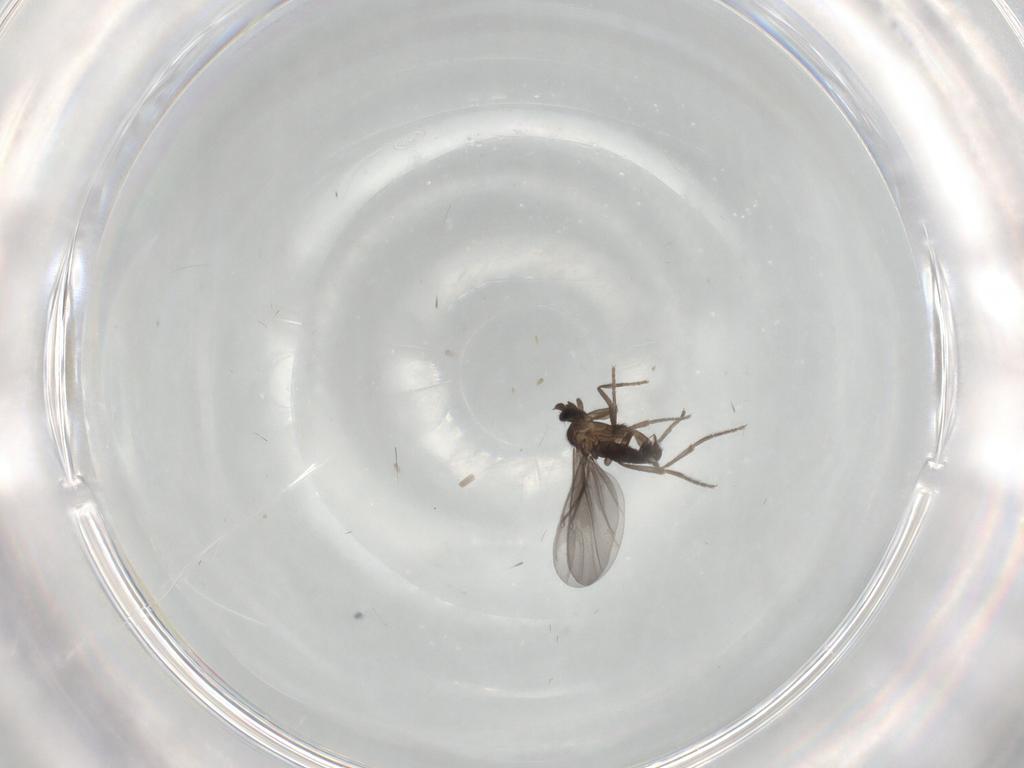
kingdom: Animalia
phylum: Arthropoda
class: Insecta
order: Diptera
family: Phoridae
